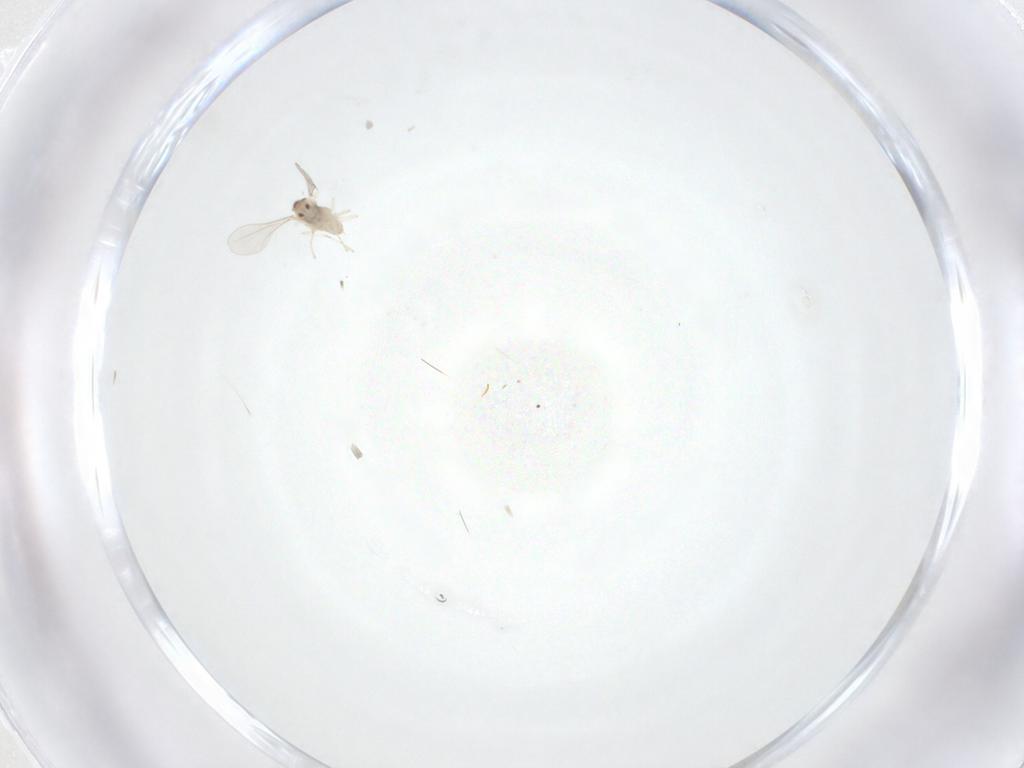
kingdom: Animalia
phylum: Arthropoda
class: Insecta
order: Diptera
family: Cecidomyiidae
